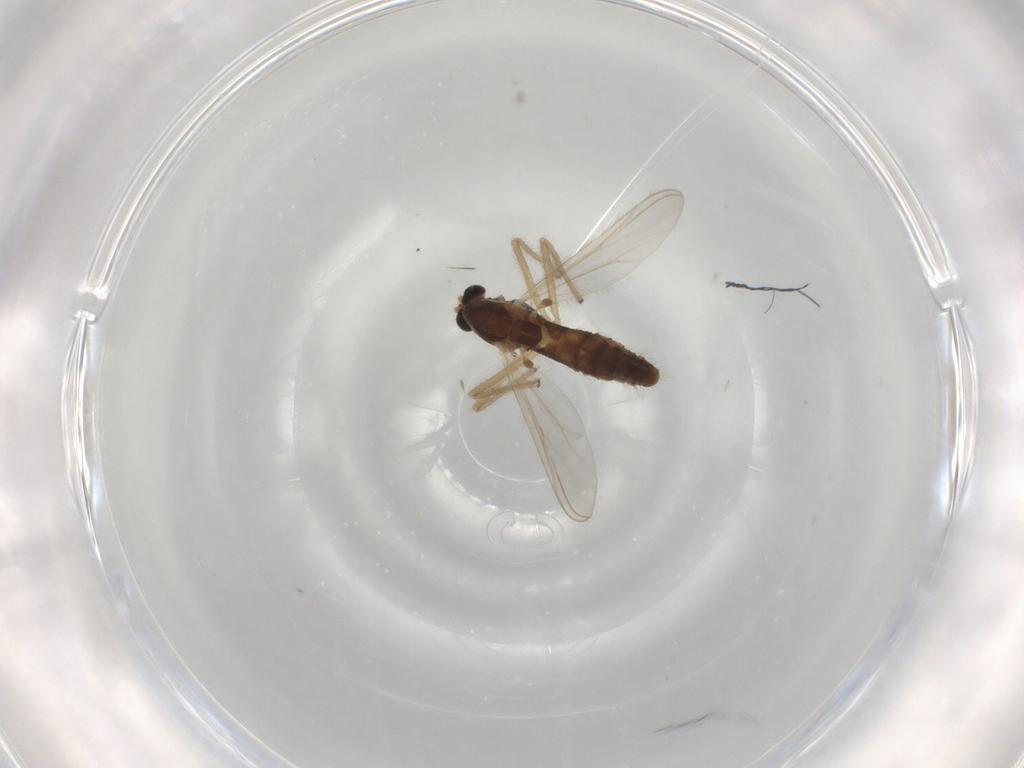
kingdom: Animalia
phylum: Arthropoda
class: Insecta
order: Diptera
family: Chironomidae
